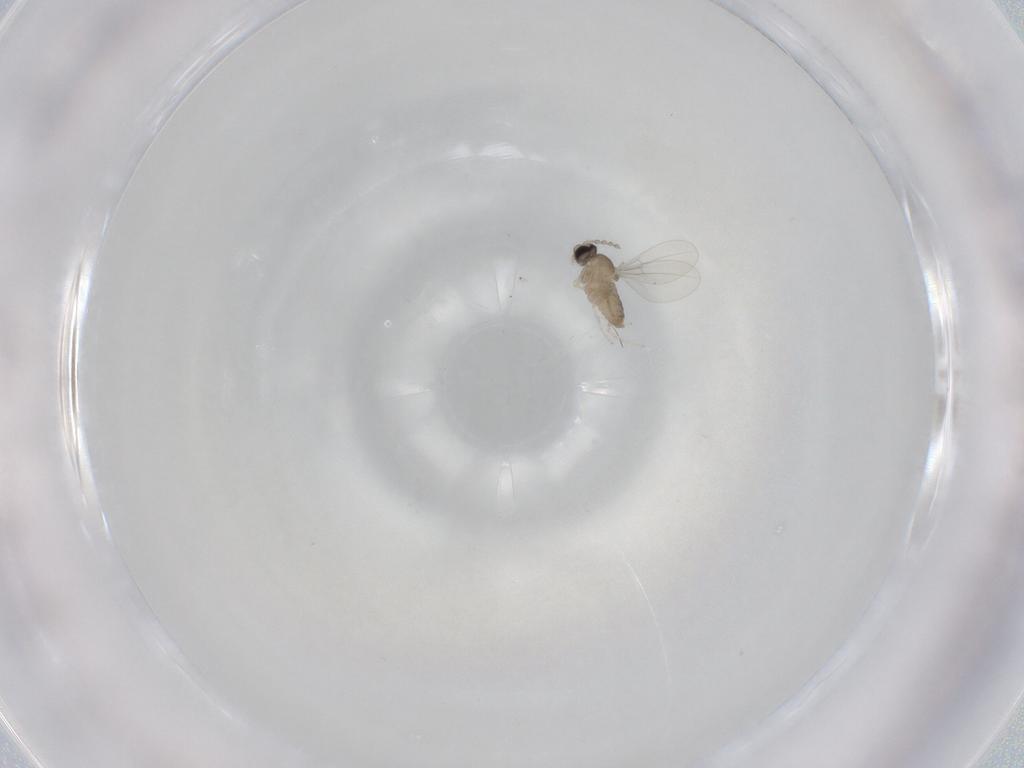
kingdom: Animalia
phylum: Arthropoda
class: Insecta
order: Diptera
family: Cecidomyiidae
